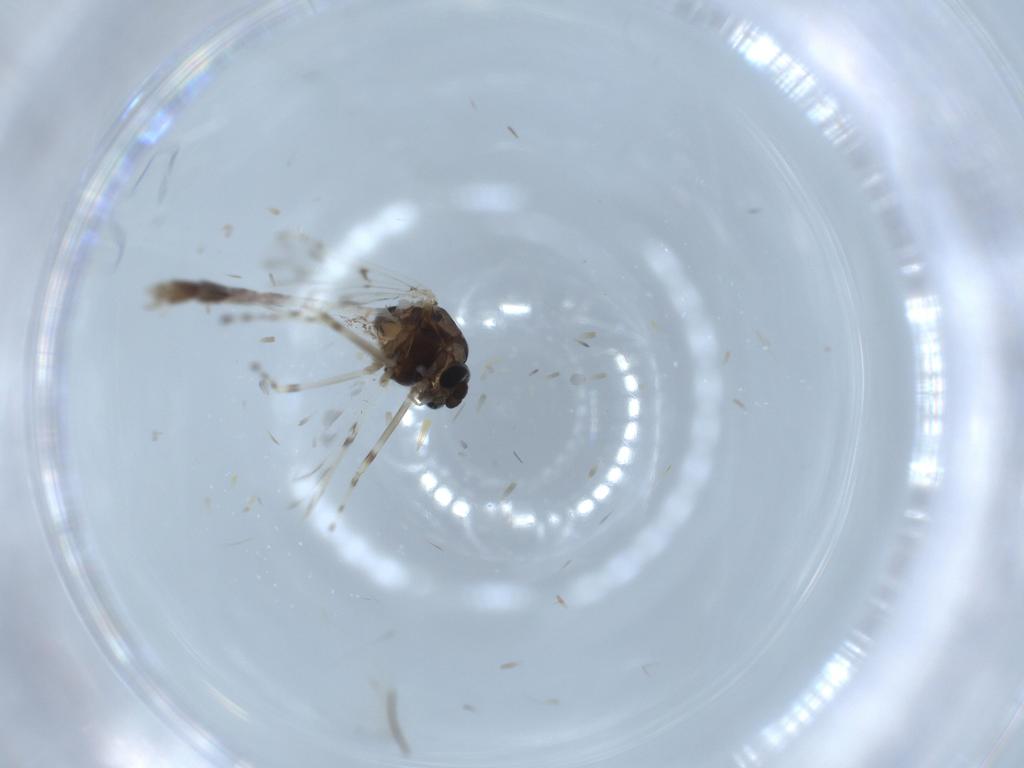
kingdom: Animalia
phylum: Arthropoda
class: Insecta
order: Diptera
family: Chironomidae
